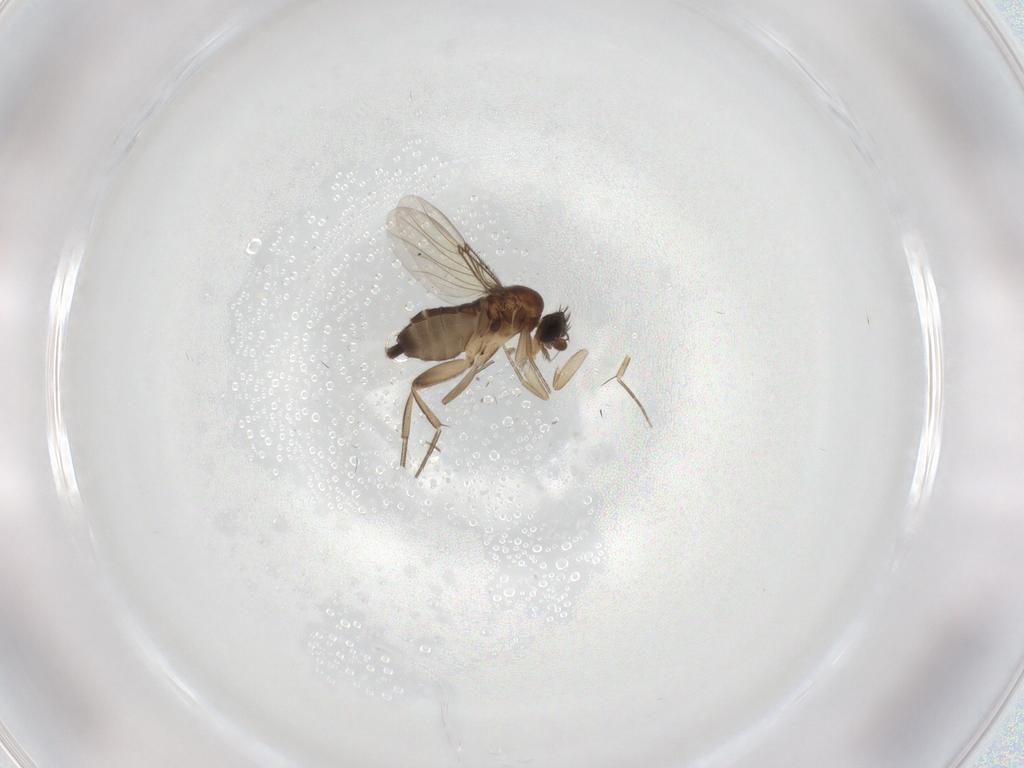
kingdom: Animalia
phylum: Arthropoda
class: Insecta
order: Diptera
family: Phoridae
